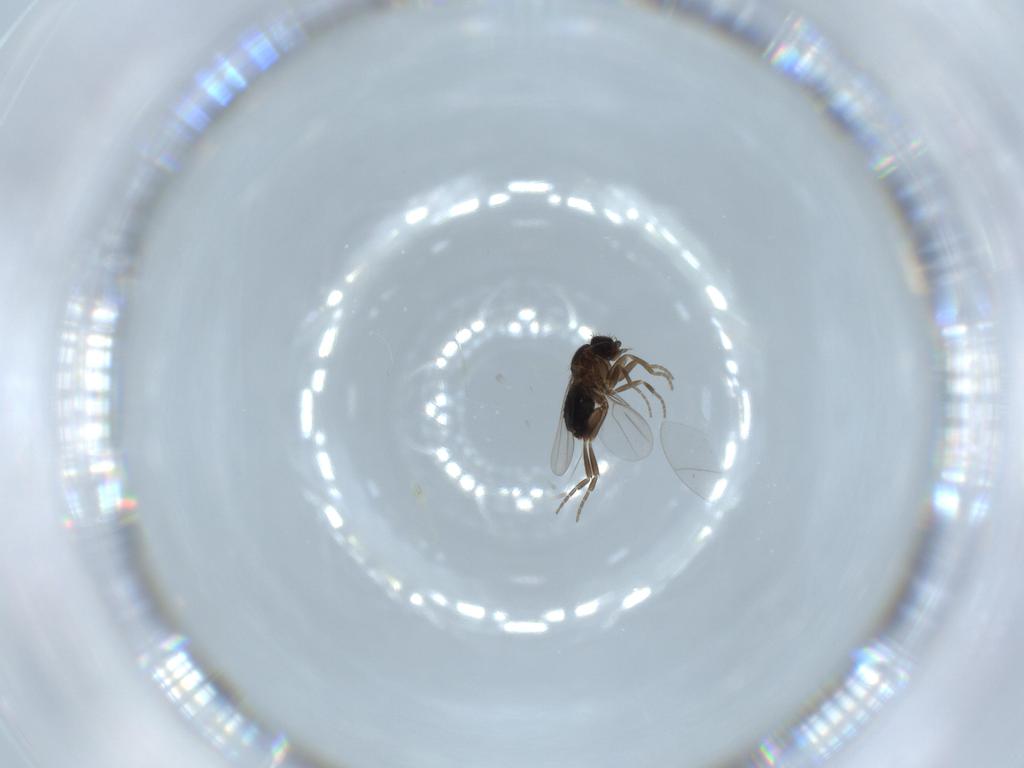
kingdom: Animalia
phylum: Arthropoda
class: Insecta
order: Diptera
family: Phoridae
